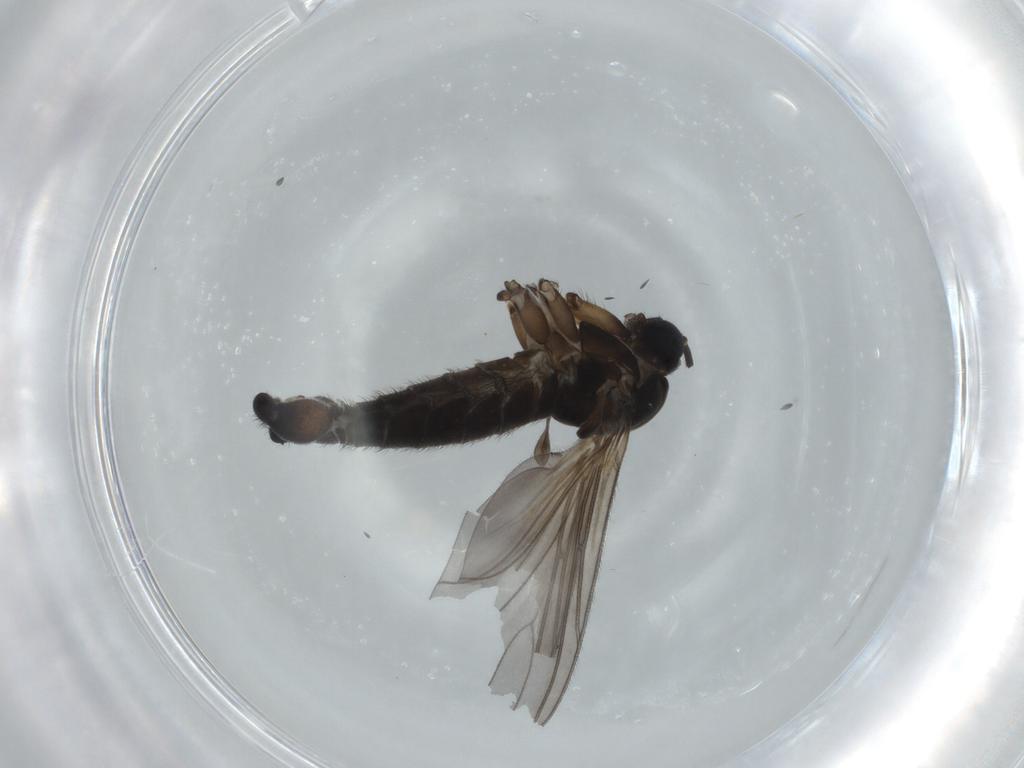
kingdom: Animalia
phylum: Arthropoda
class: Insecta
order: Diptera
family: Sciaridae
